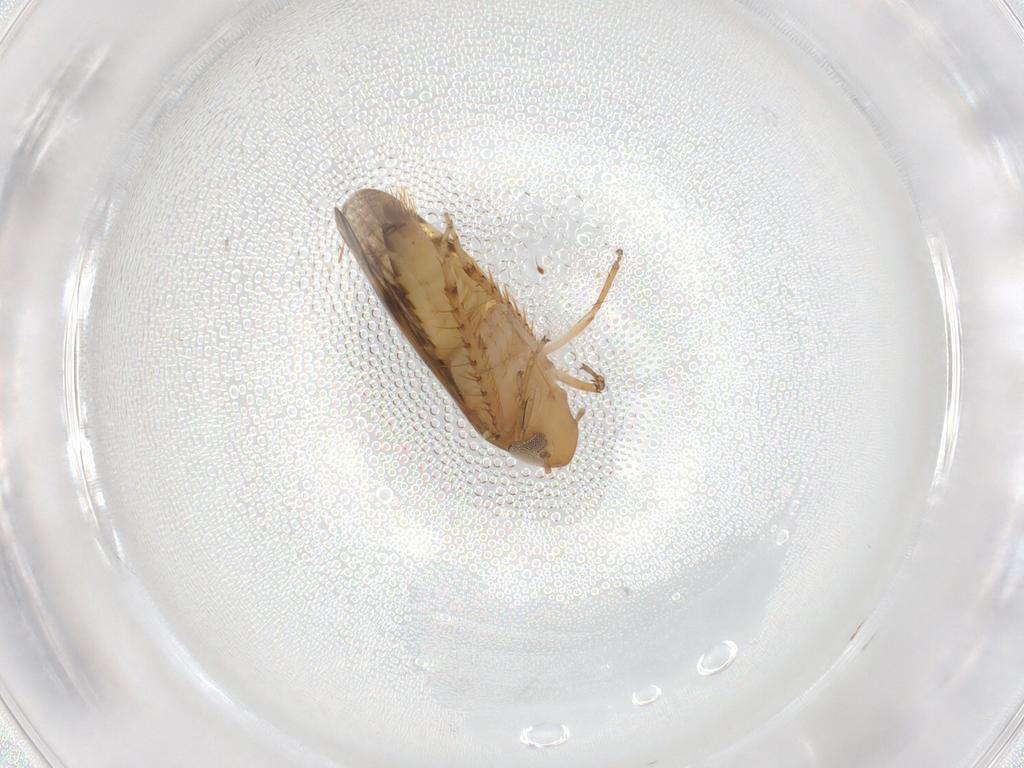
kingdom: Animalia
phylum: Arthropoda
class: Insecta
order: Hemiptera
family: Cicadellidae
